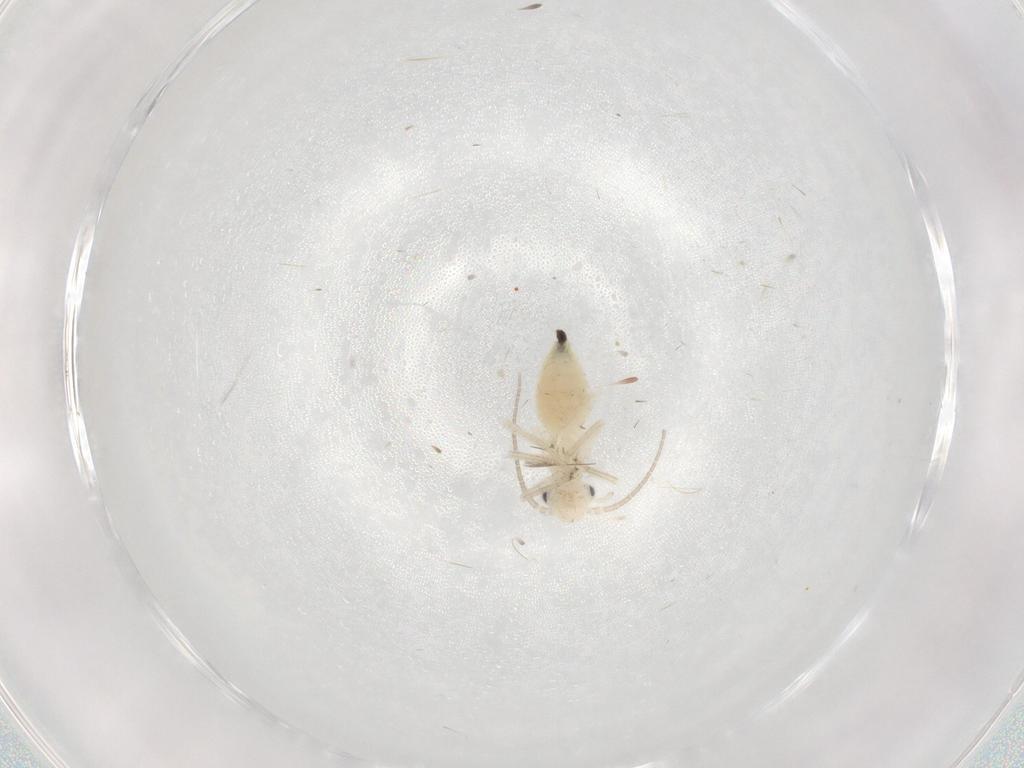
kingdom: Animalia
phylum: Arthropoda
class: Insecta
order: Psocodea
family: Caeciliusidae
